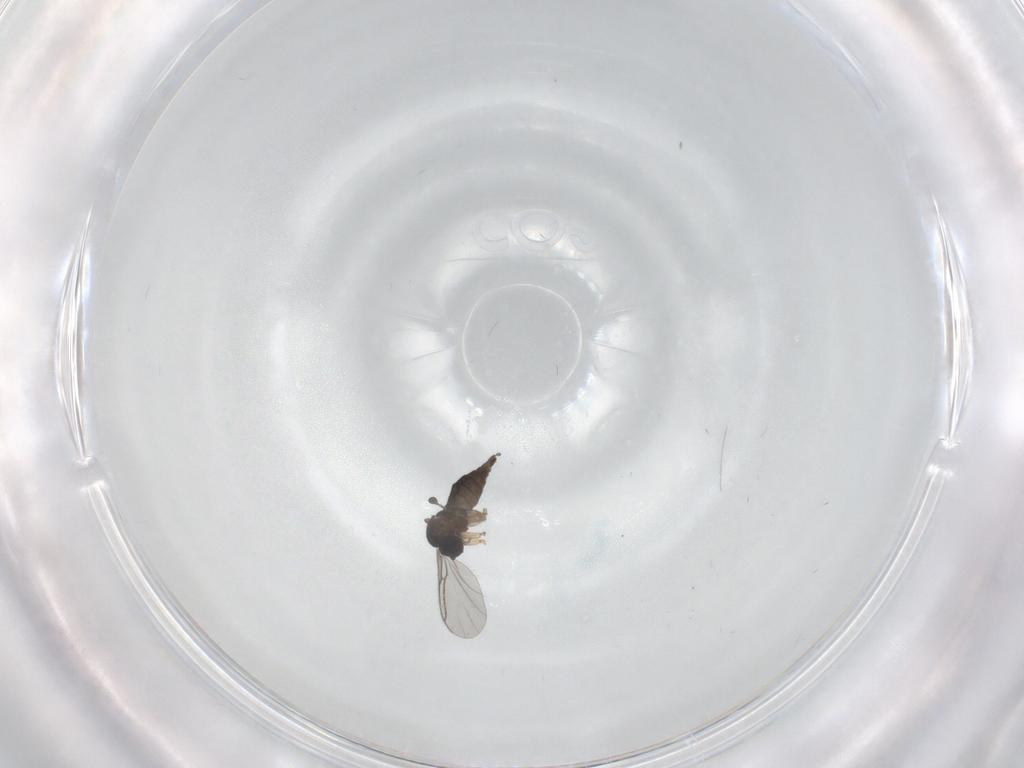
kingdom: Animalia
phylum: Arthropoda
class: Insecta
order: Diptera
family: Sciaridae
